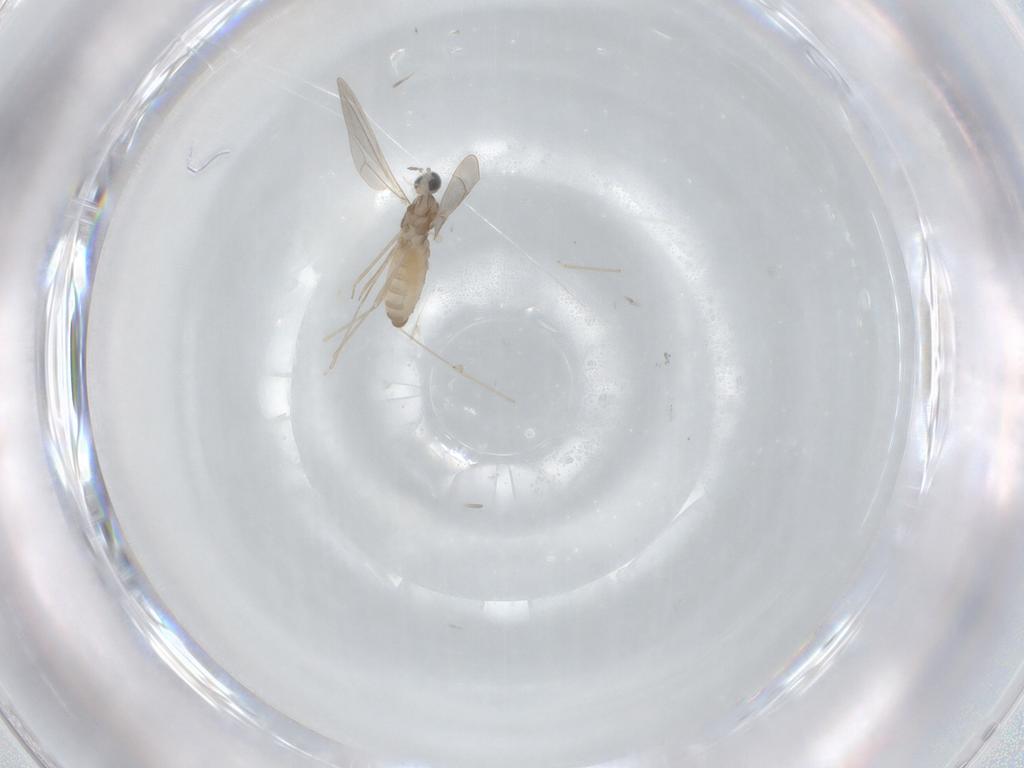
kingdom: Animalia
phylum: Arthropoda
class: Insecta
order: Diptera
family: Cecidomyiidae
